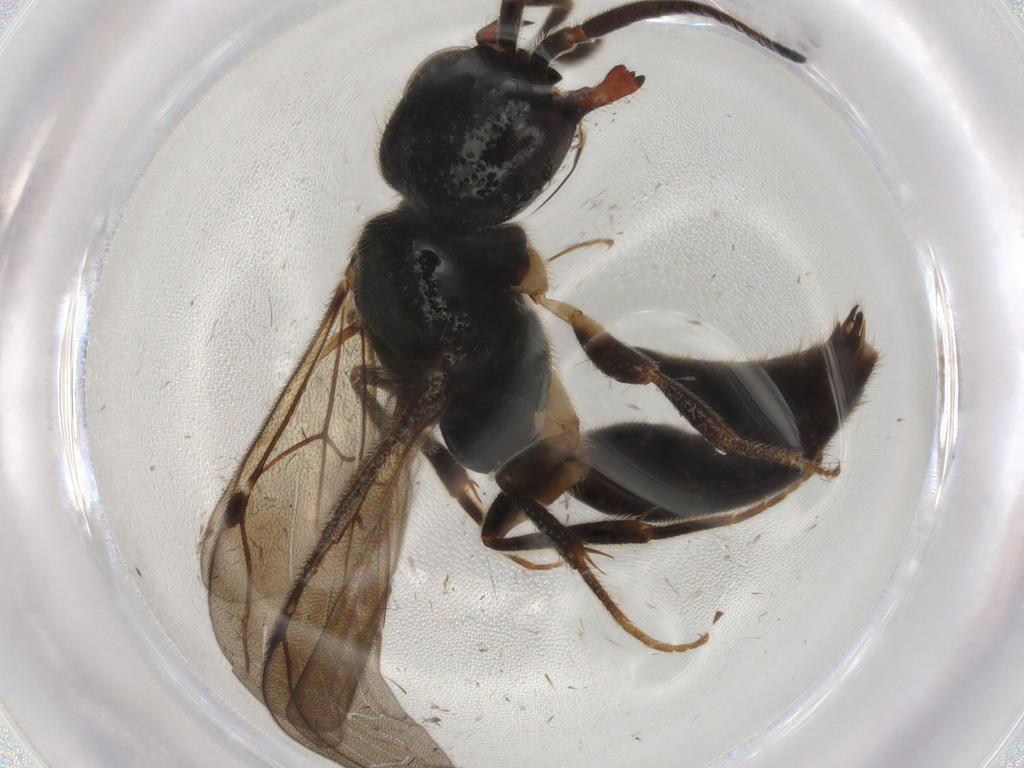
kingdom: Animalia
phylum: Arthropoda
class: Insecta
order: Hymenoptera
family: Bethylidae
